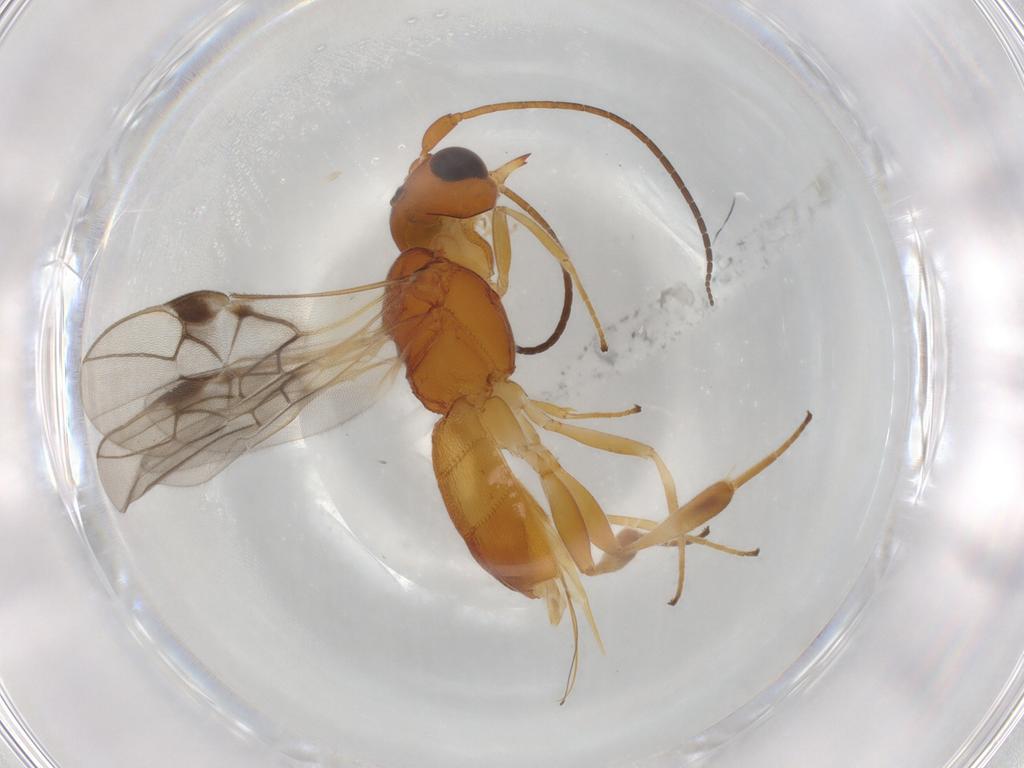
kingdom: Animalia
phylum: Arthropoda
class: Insecta
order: Hymenoptera
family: Braconidae
